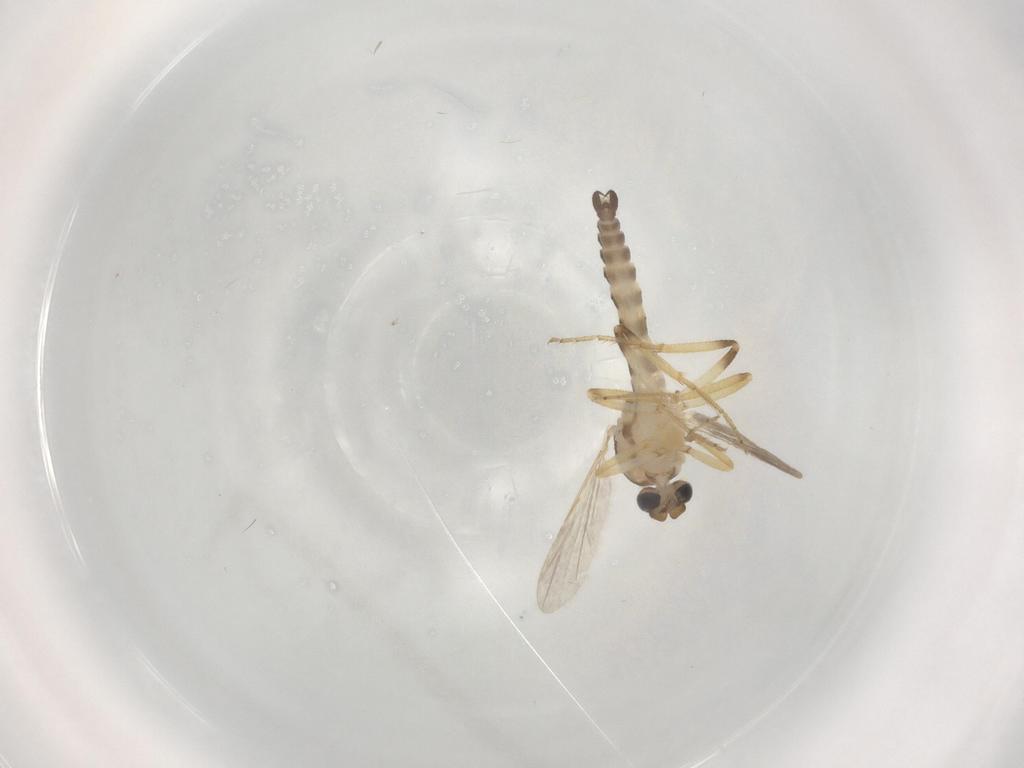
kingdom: Animalia
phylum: Arthropoda
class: Insecta
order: Diptera
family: Ceratopogonidae
